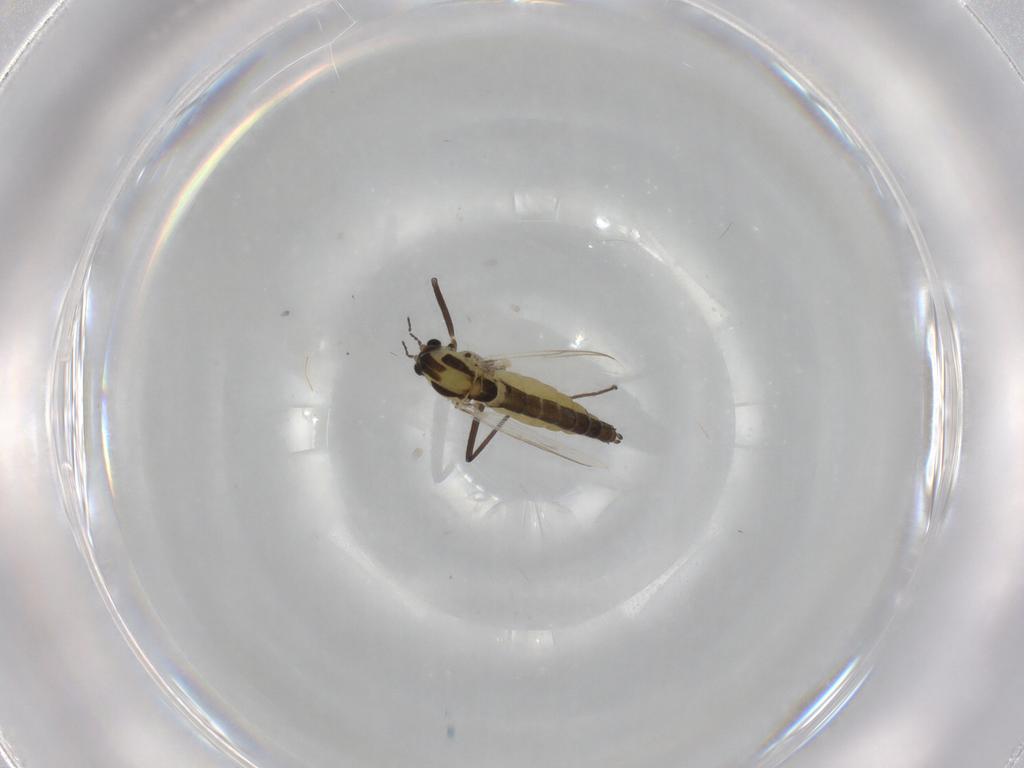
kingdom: Animalia
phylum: Arthropoda
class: Insecta
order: Diptera
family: Chironomidae
